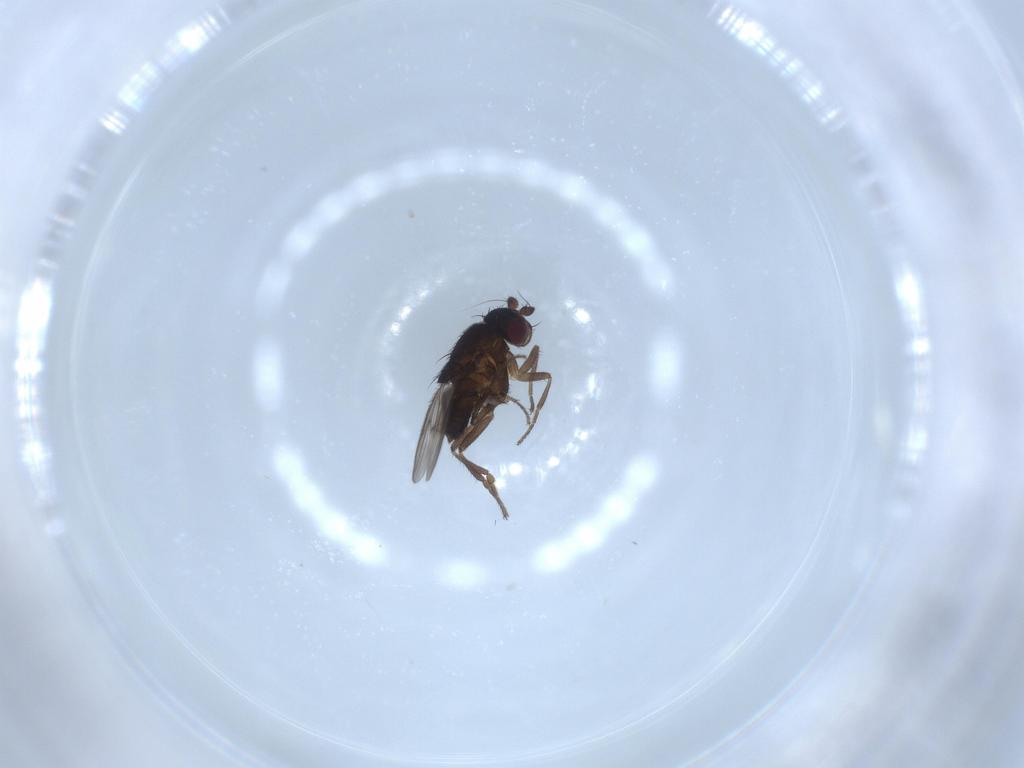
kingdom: Animalia
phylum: Arthropoda
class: Insecta
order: Diptera
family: Sphaeroceridae
